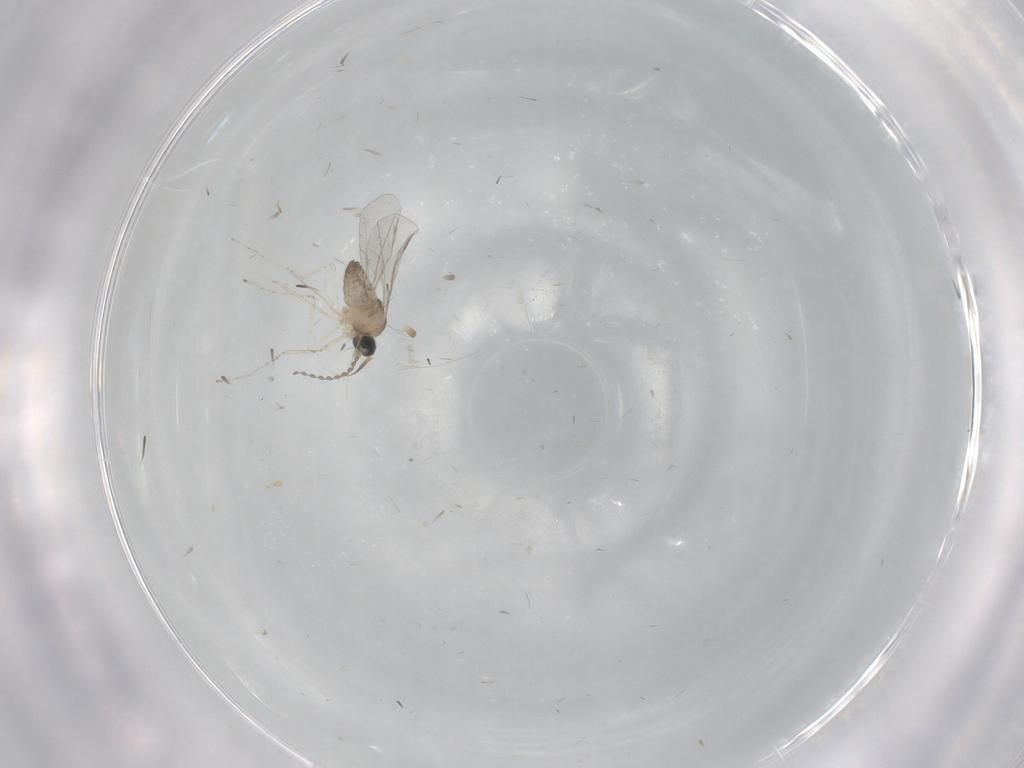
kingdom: Animalia
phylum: Arthropoda
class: Insecta
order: Diptera
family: Cecidomyiidae
